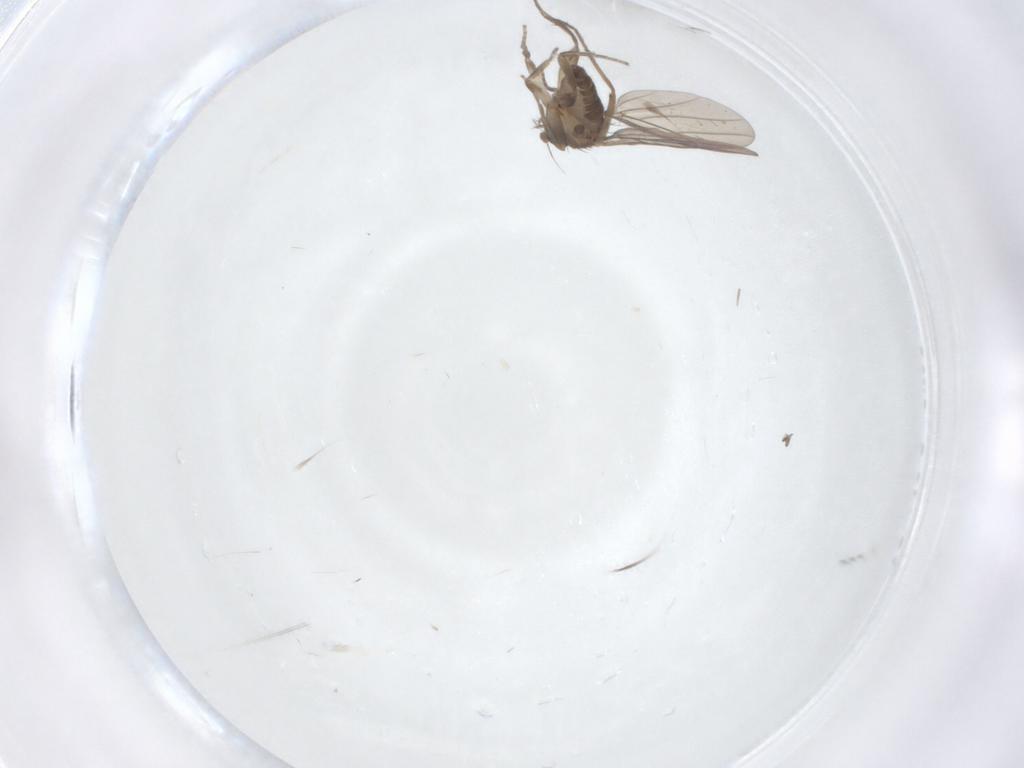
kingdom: Animalia
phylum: Arthropoda
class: Insecta
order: Diptera
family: Chironomidae
